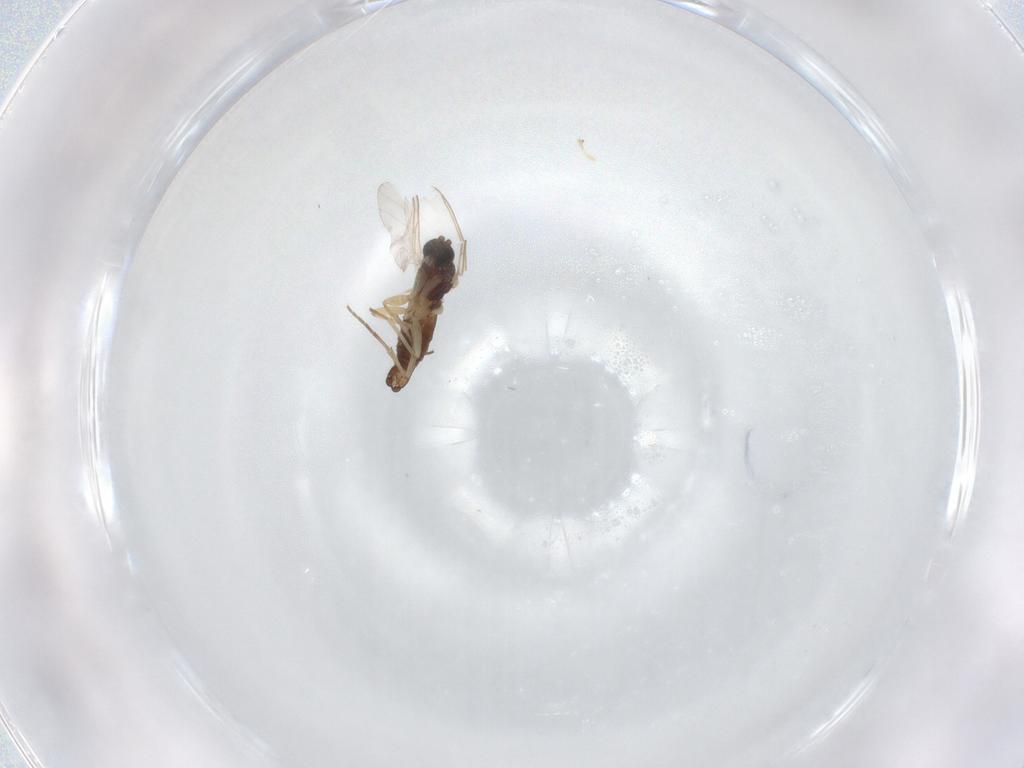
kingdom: Animalia
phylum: Arthropoda
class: Insecta
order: Diptera
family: Sciaridae
